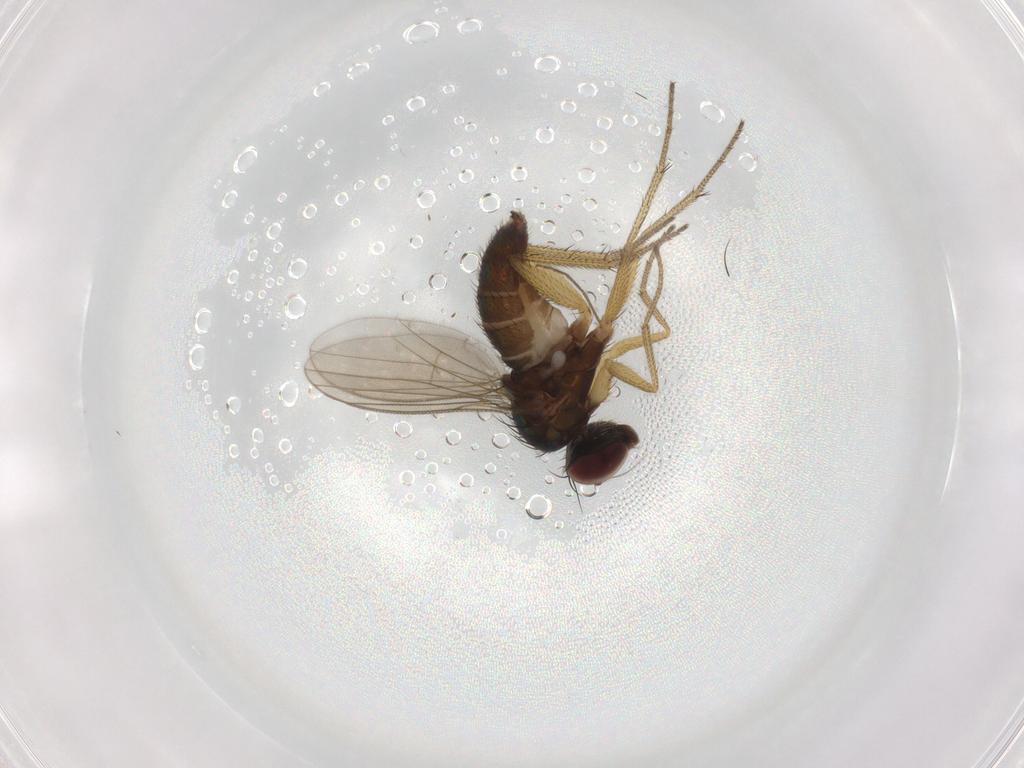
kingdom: Animalia
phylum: Arthropoda
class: Insecta
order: Diptera
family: Dolichopodidae
